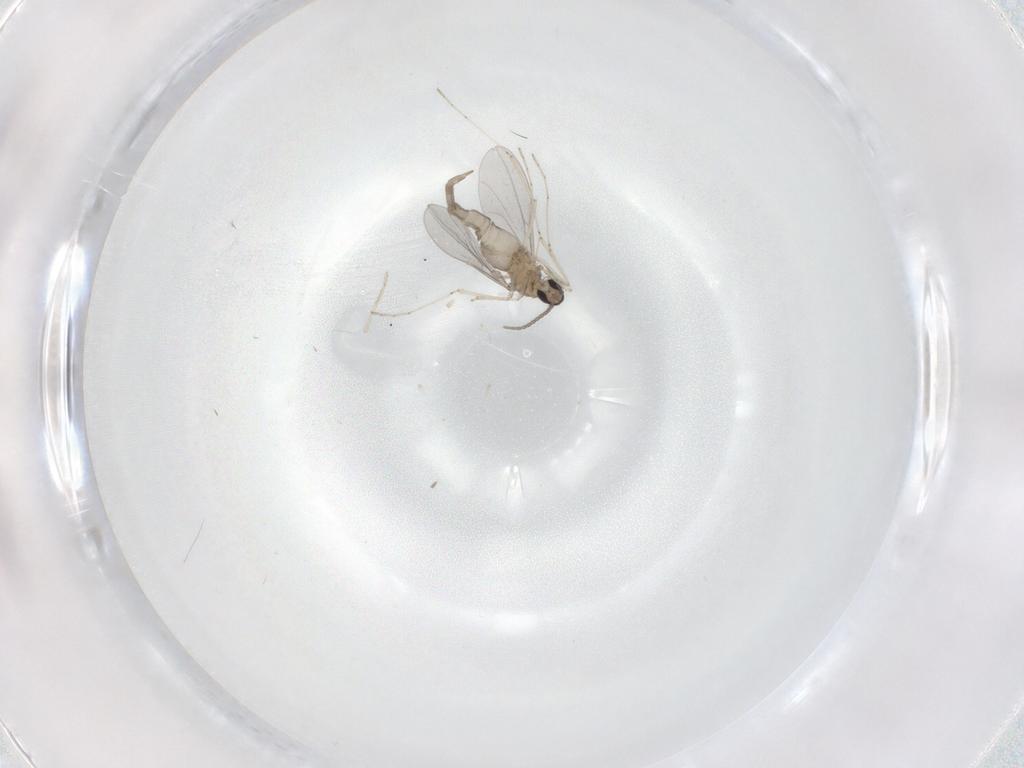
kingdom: Animalia
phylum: Arthropoda
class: Insecta
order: Diptera
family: Cecidomyiidae
